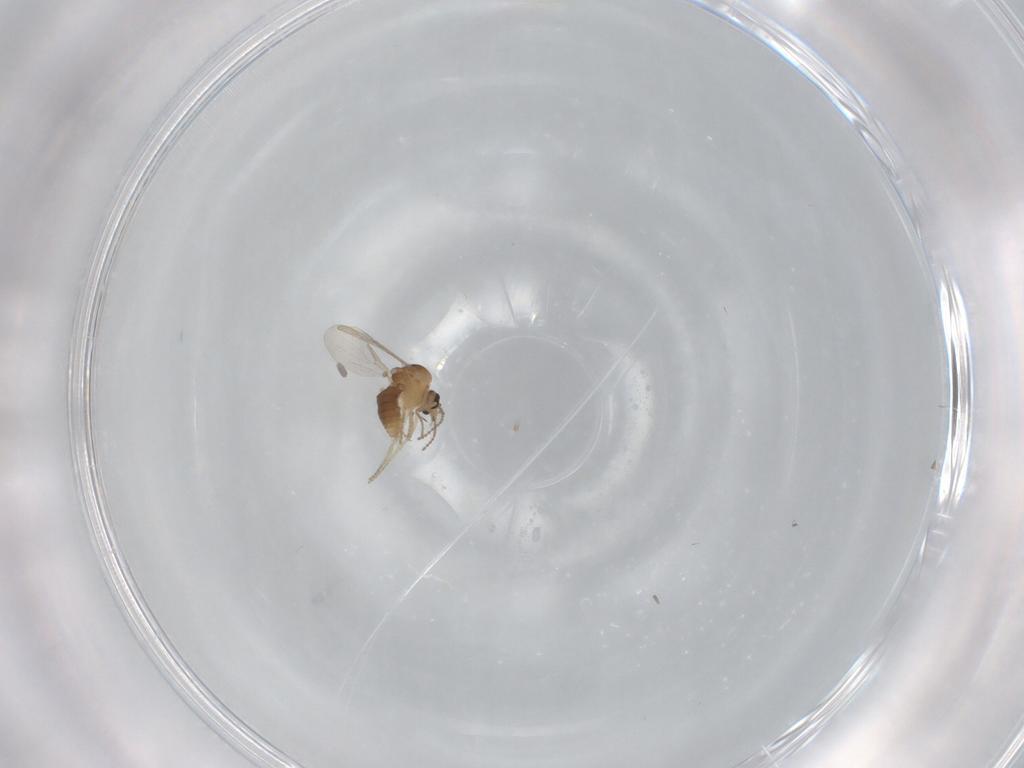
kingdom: Animalia
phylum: Arthropoda
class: Insecta
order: Diptera
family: Ceratopogonidae
